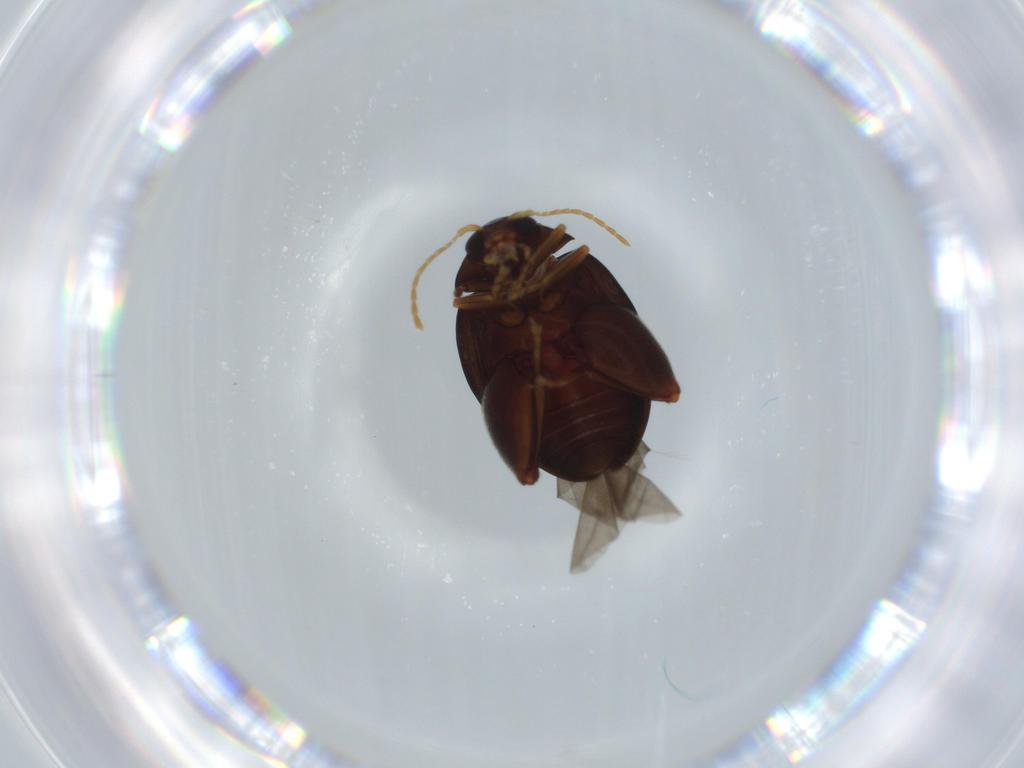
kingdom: Animalia
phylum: Arthropoda
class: Insecta
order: Coleoptera
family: Chrysomelidae
